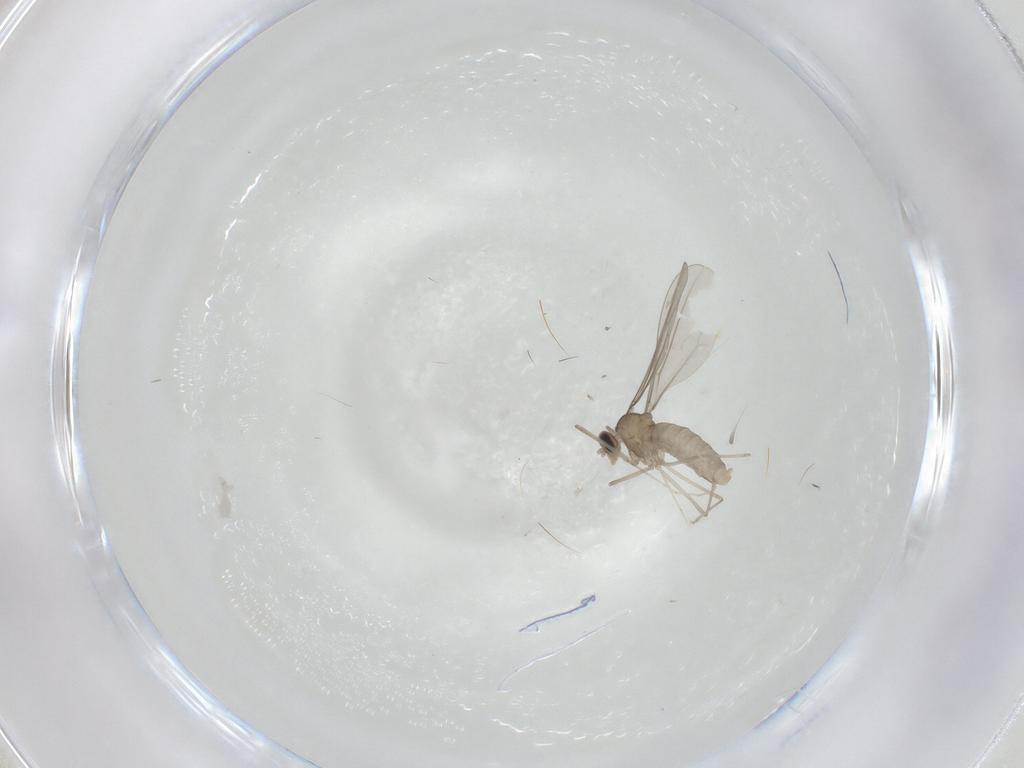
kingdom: Animalia
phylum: Arthropoda
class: Insecta
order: Diptera
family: Cecidomyiidae
